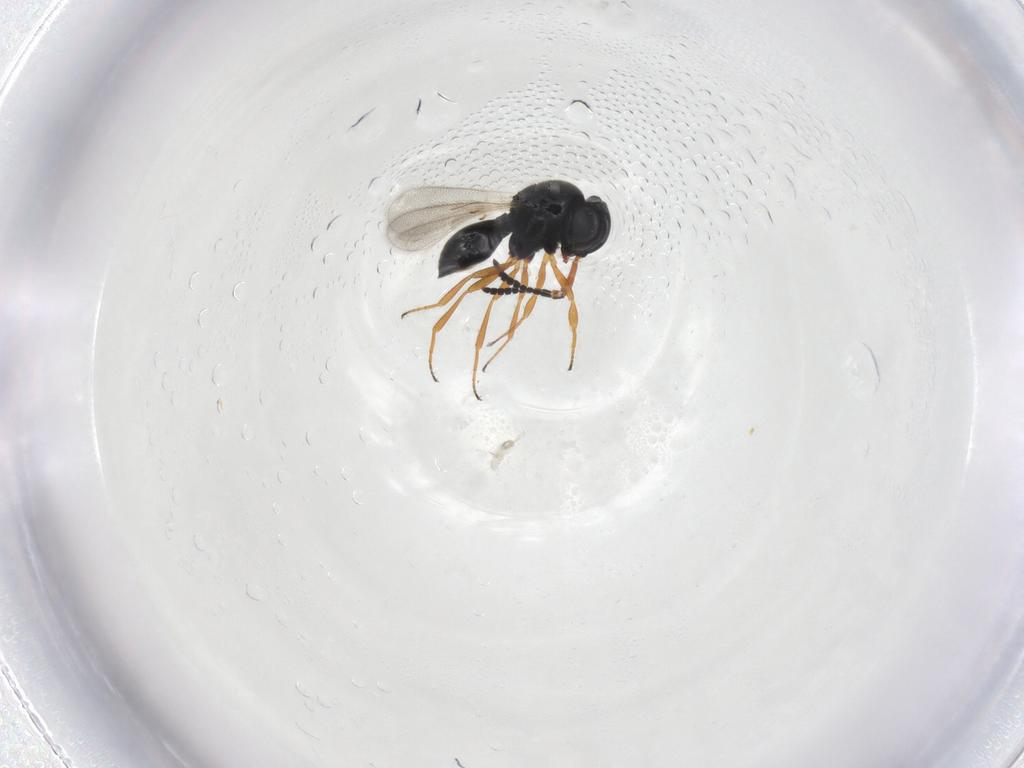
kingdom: Animalia
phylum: Arthropoda
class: Insecta
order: Hymenoptera
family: Scelionidae
